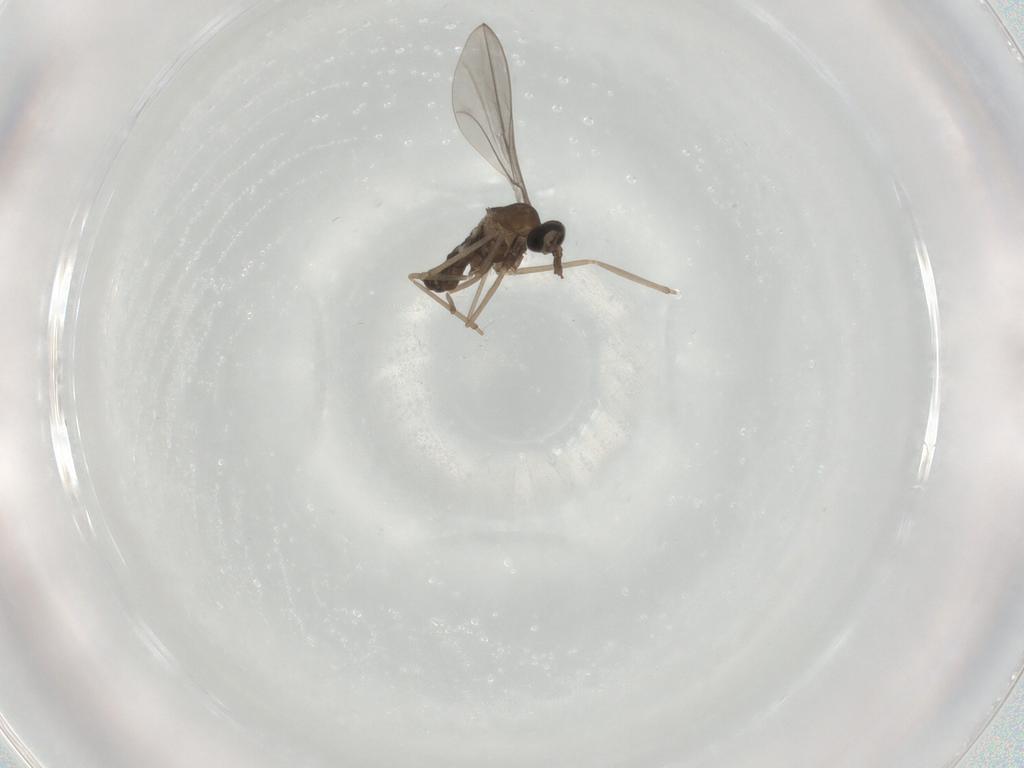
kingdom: Animalia
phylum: Arthropoda
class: Insecta
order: Diptera
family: Cecidomyiidae
